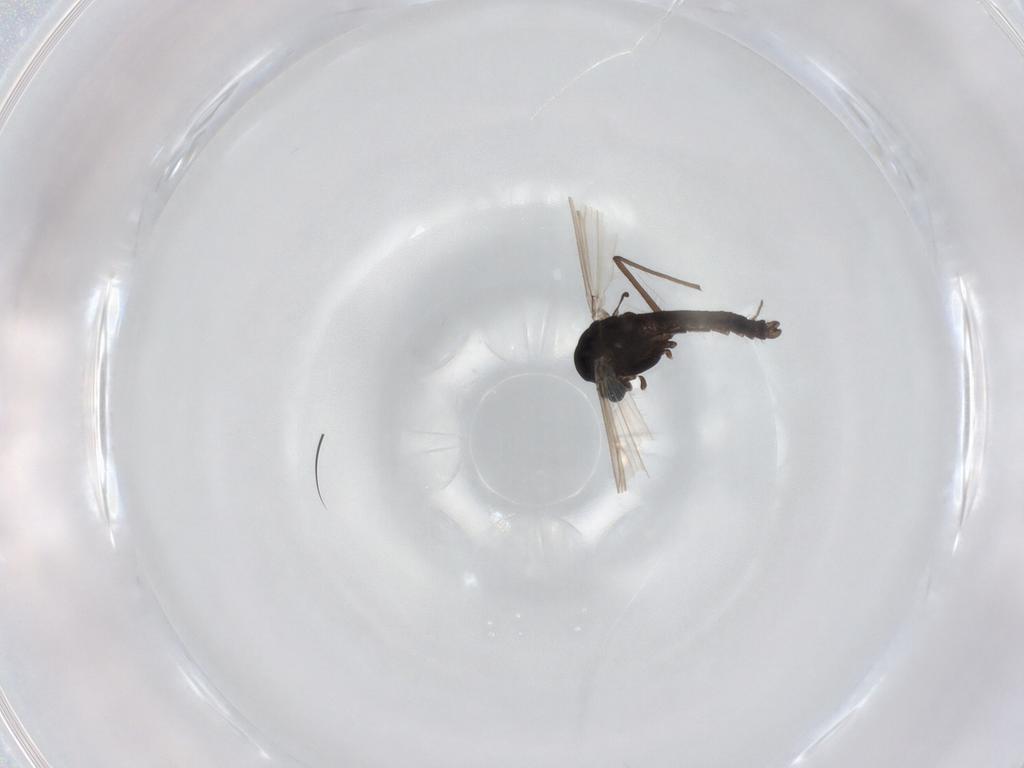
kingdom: Animalia
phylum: Arthropoda
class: Insecta
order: Diptera
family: Chironomidae
